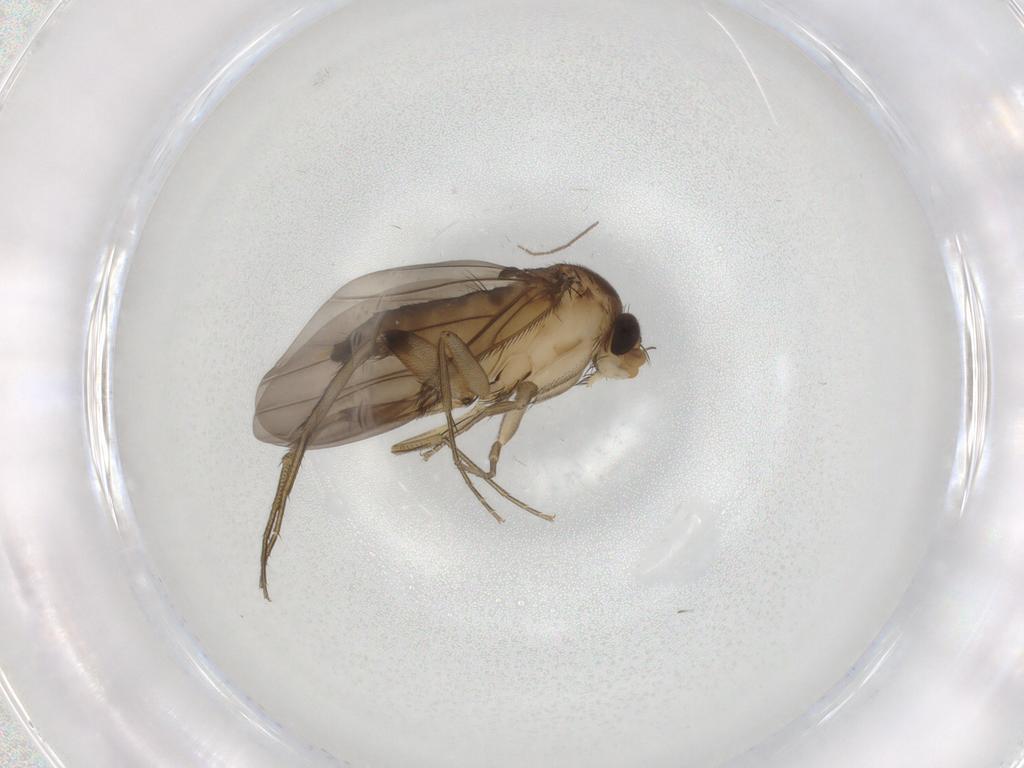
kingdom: Animalia
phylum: Arthropoda
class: Insecta
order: Diptera
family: Phoridae
